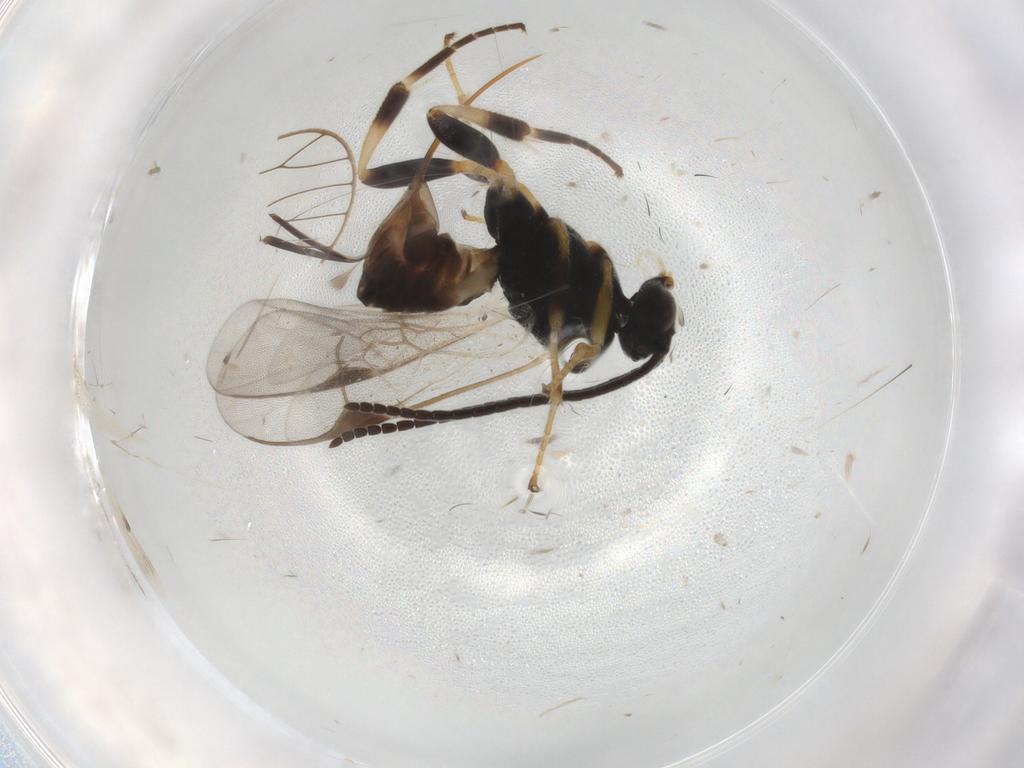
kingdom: Animalia
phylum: Arthropoda
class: Insecta
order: Hymenoptera
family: Braconidae
